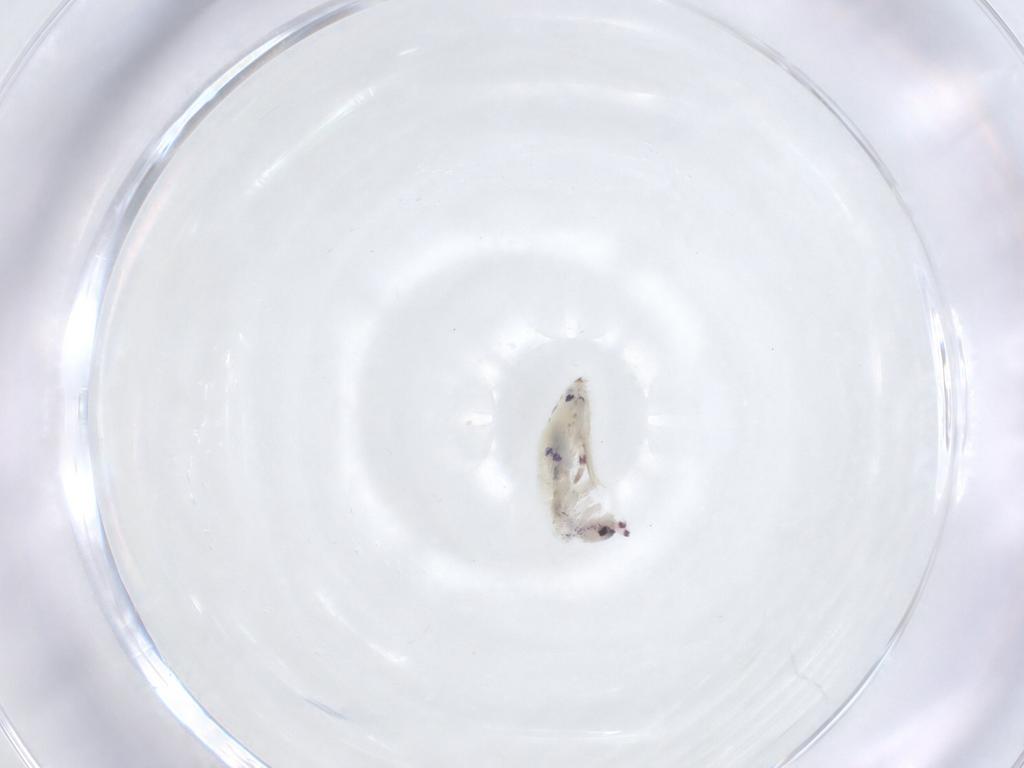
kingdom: Animalia
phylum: Arthropoda
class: Collembola
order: Entomobryomorpha
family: Entomobryidae
